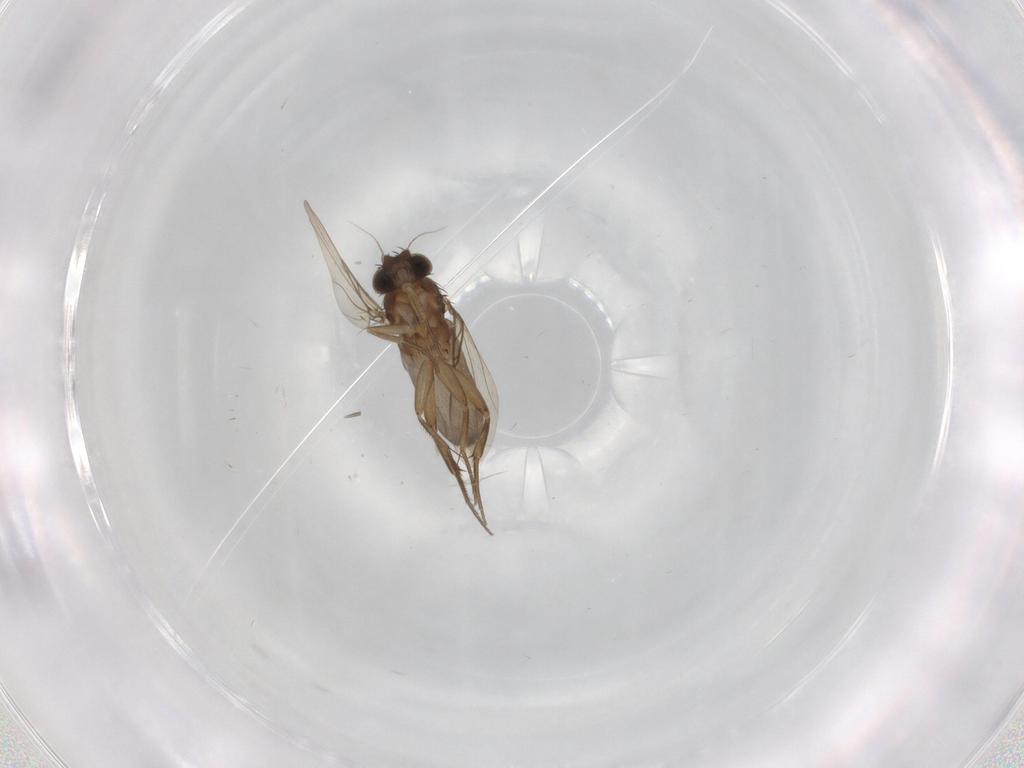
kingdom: Animalia
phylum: Arthropoda
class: Insecta
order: Diptera
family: Phoridae
